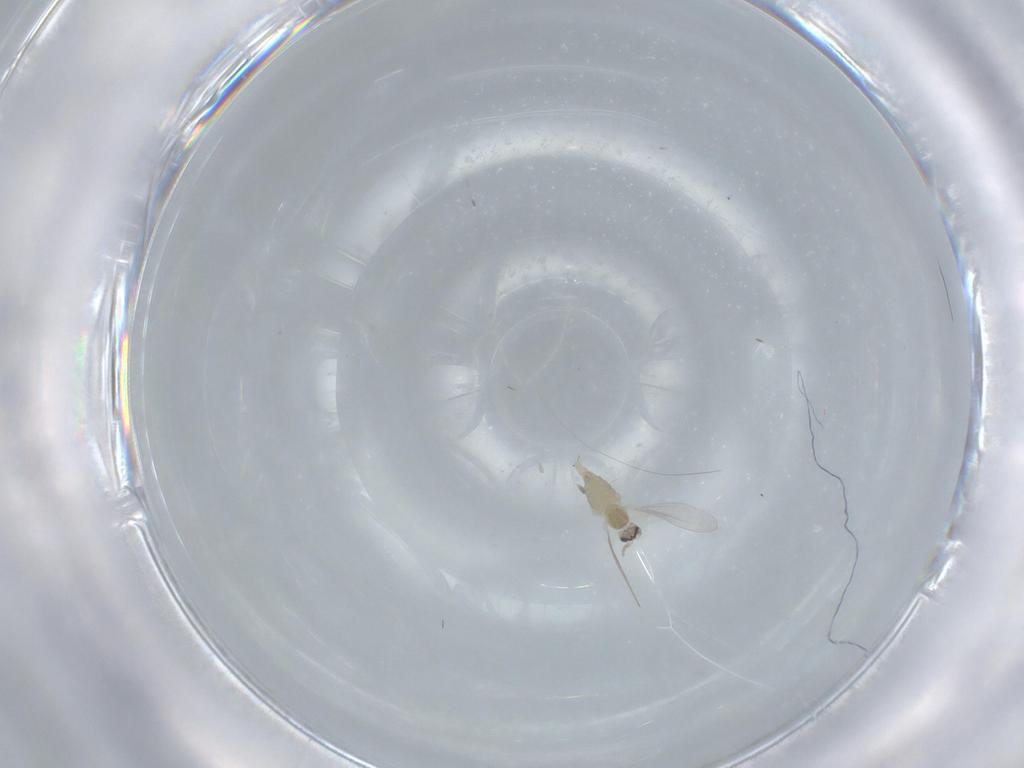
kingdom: Animalia
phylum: Arthropoda
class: Insecta
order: Diptera
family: Cecidomyiidae
